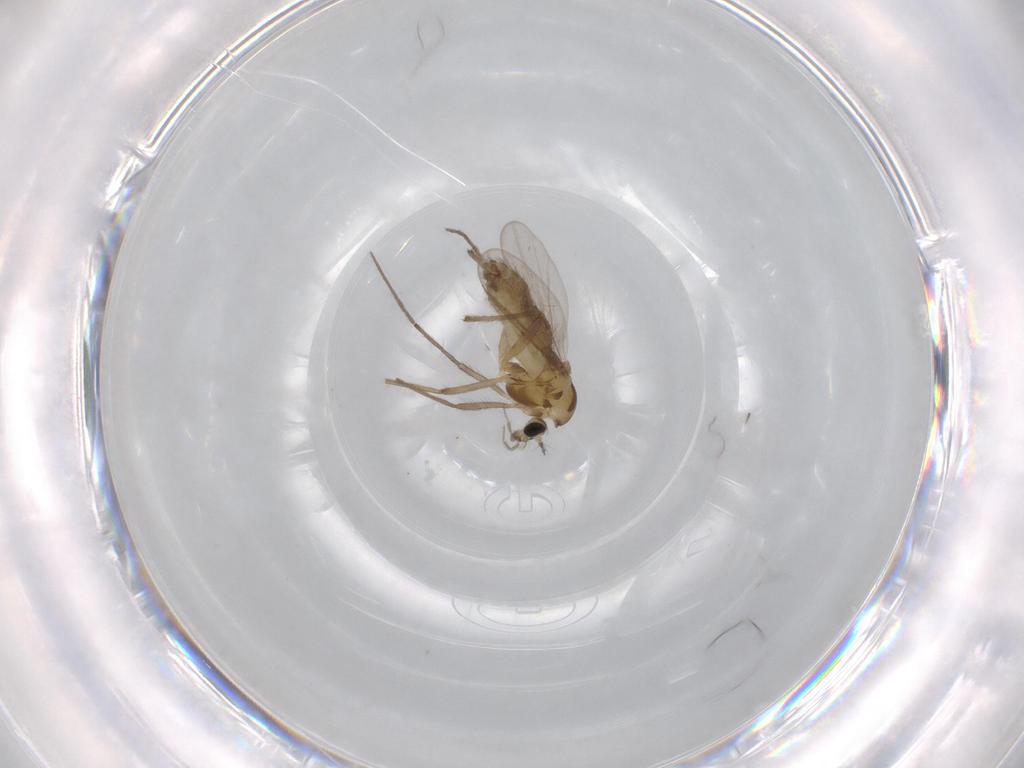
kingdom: Animalia
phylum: Arthropoda
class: Insecta
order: Diptera
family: Chironomidae
